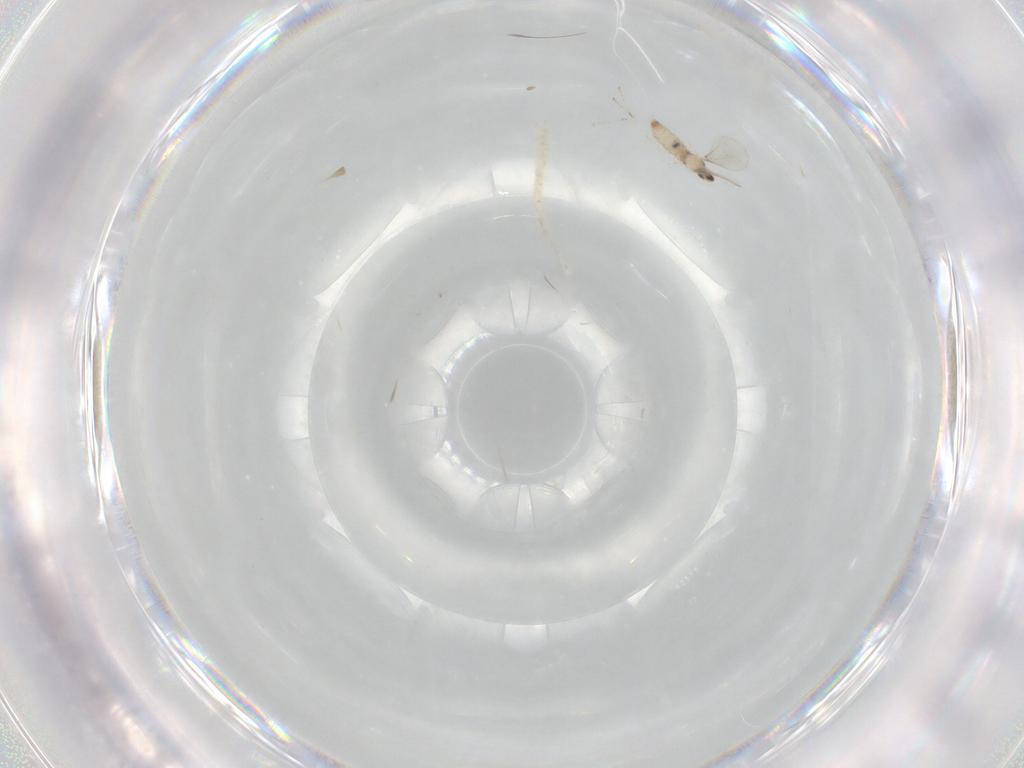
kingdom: Animalia
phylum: Arthropoda
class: Insecta
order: Diptera
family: Cecidomyiidae
